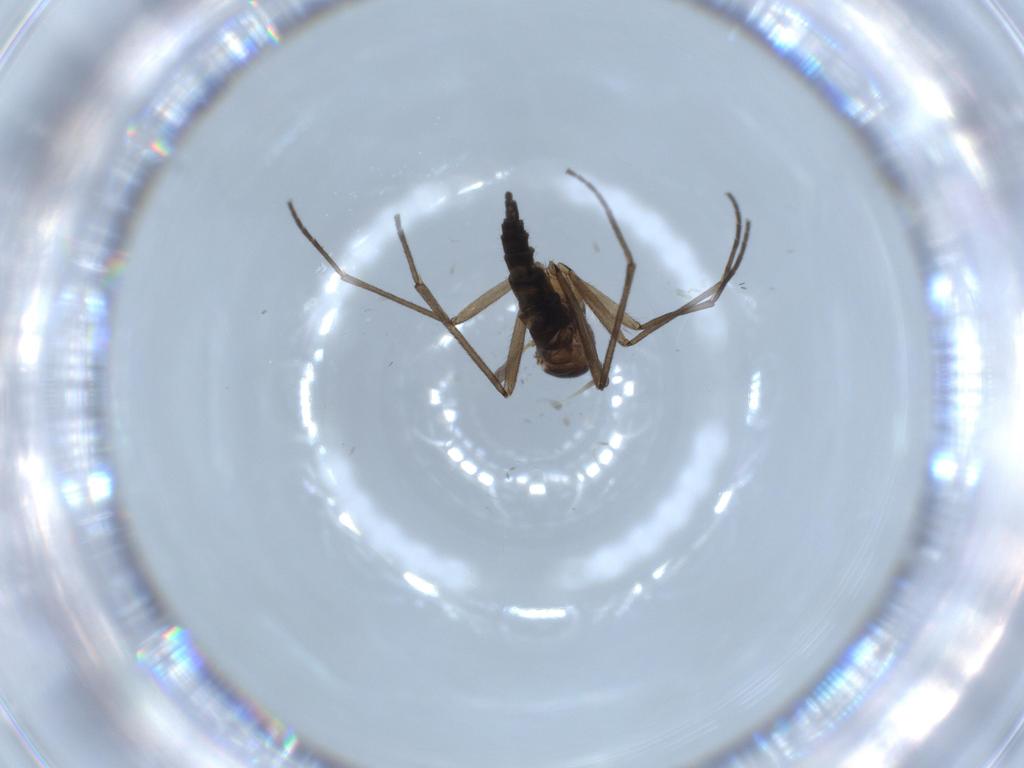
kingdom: Animalia
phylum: Arthropoda
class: Insecta
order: Diptera
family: Sciaridae
